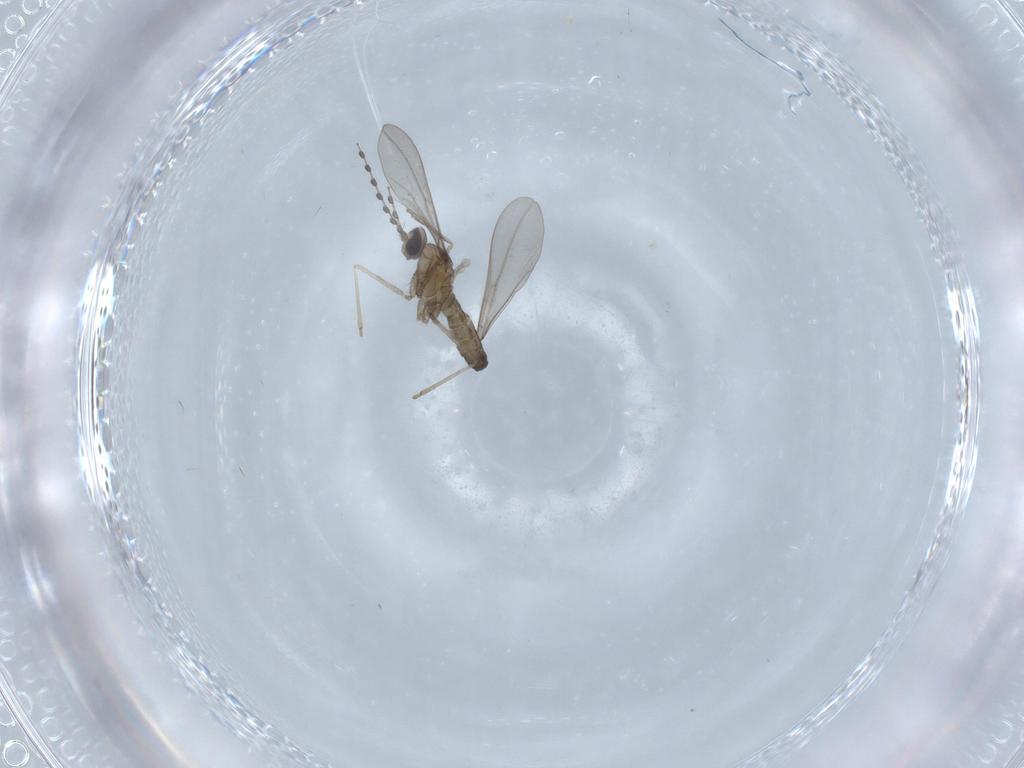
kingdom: Animalia
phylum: Arthropoda
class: Insecta
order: Diptera
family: Chironomidae
